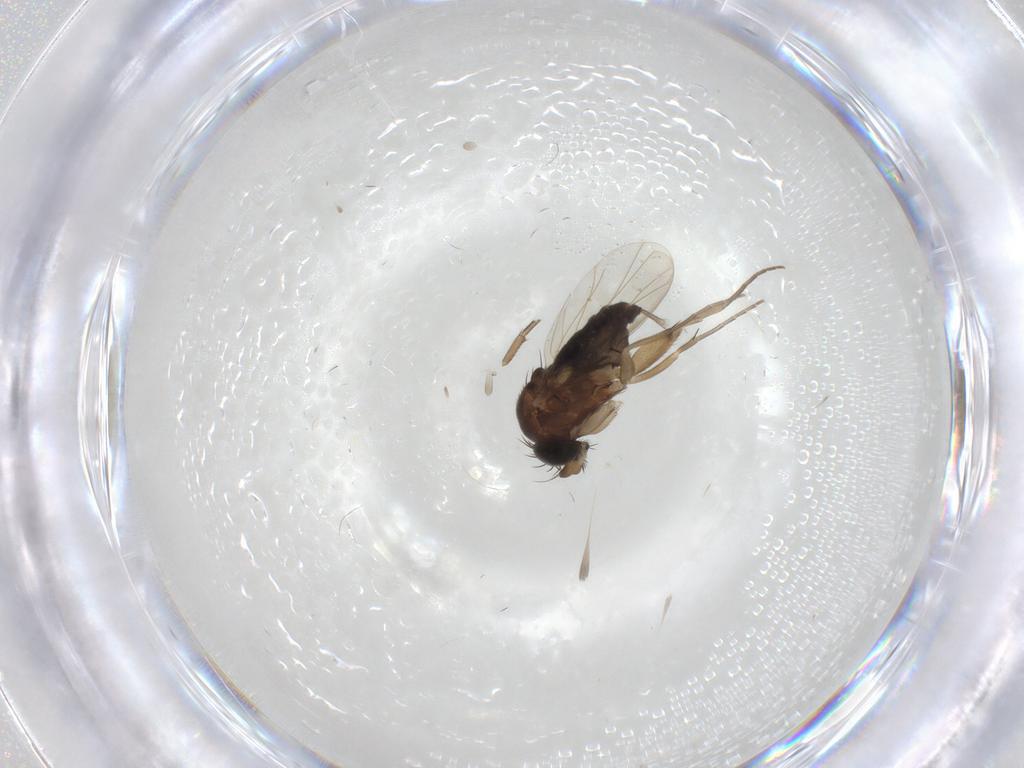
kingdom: Animalia
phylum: Arthropoda
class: Insecta
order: Diptera
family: Phoridae
